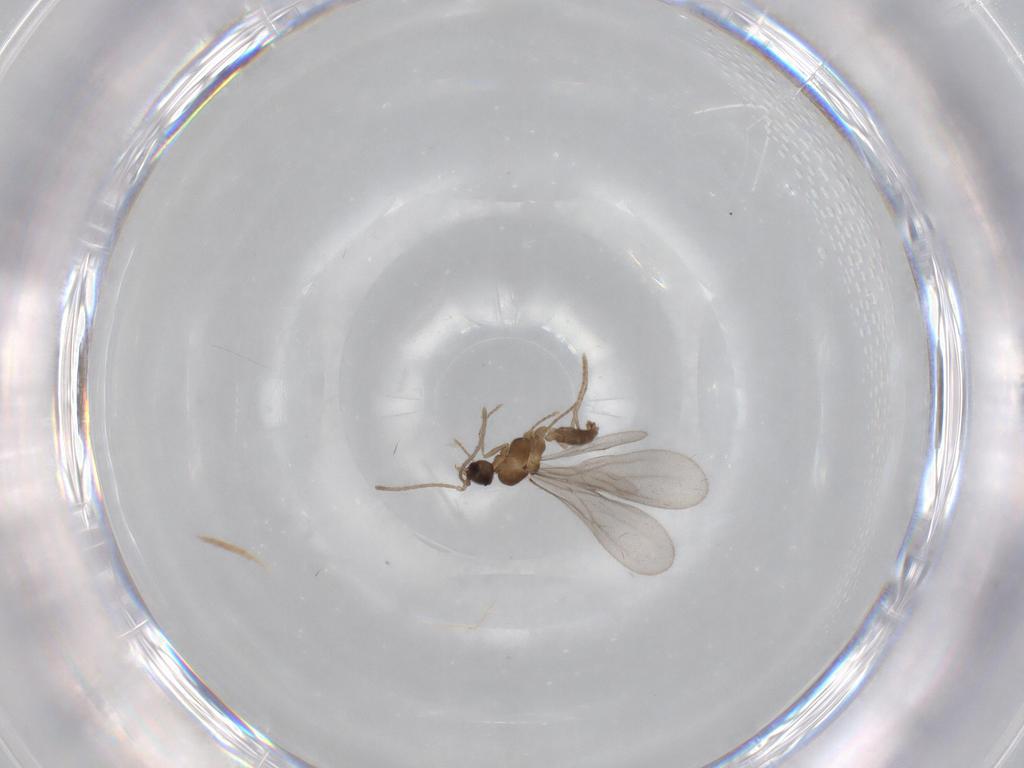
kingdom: Animalia
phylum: Arthropoda
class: Insecta
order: Hymenoptera
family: Formicidae
